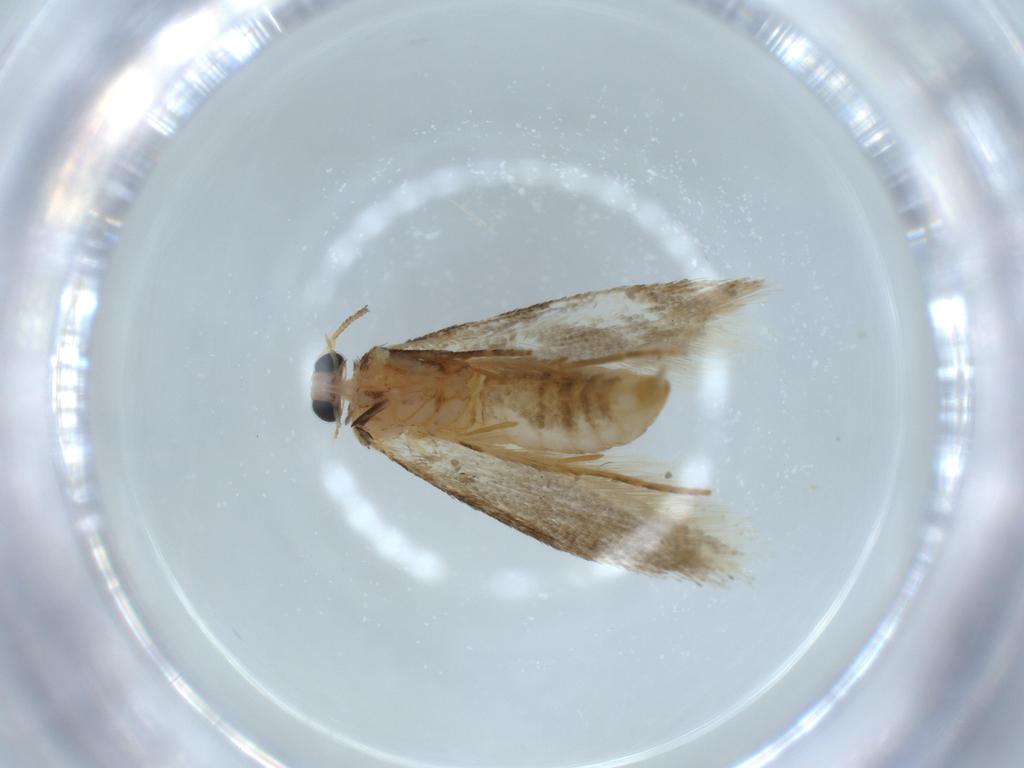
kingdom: Animalia
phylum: Arthropoda
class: Insecta
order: Lepidoptera
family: Cosmopterigidae
